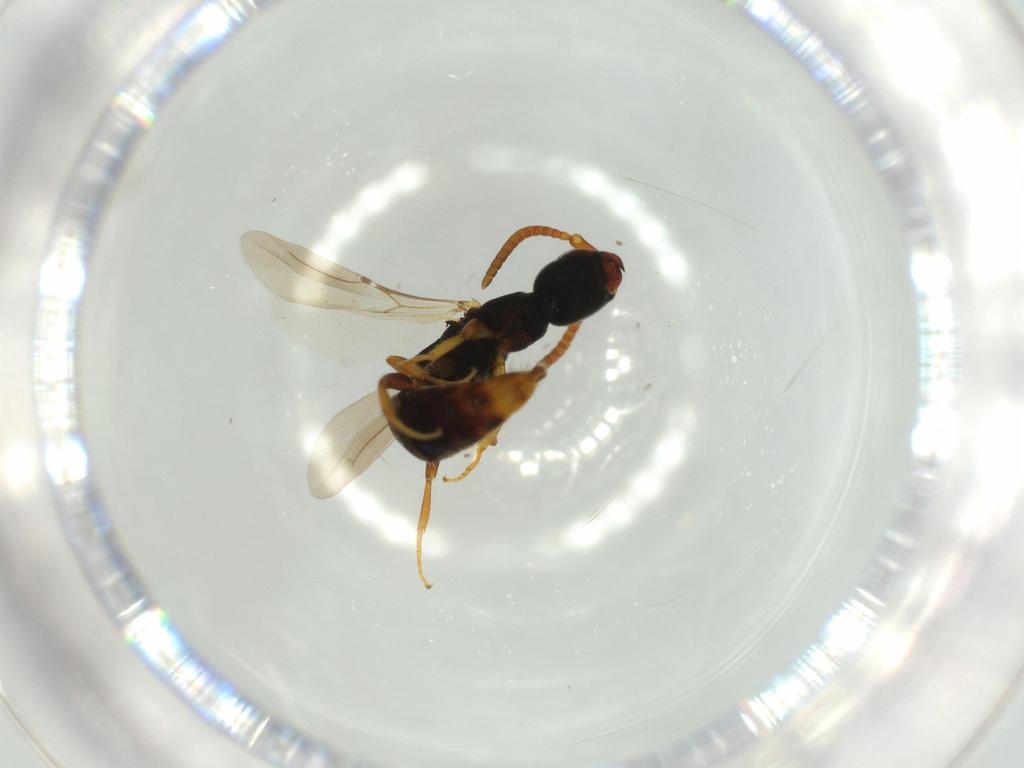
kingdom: Animalia
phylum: Arthropoda
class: Insecta
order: Hymenoptera
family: Bethylidae
